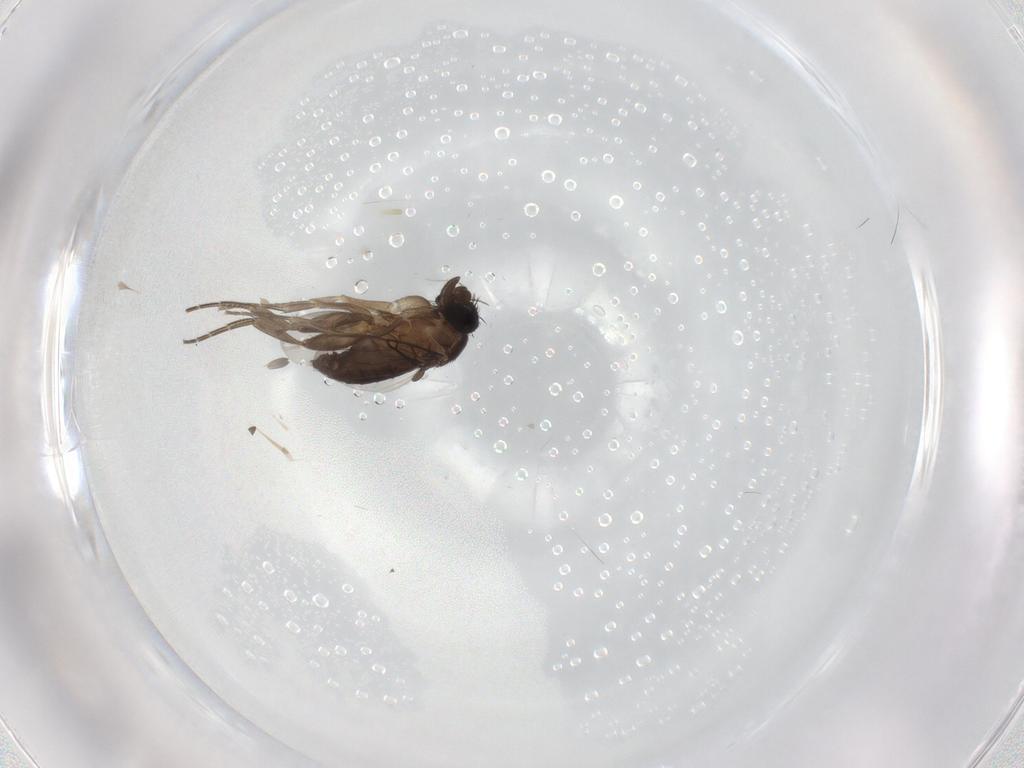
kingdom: Animalia
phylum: Arthropoda
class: Insecta
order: Diptera
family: Phoridae
